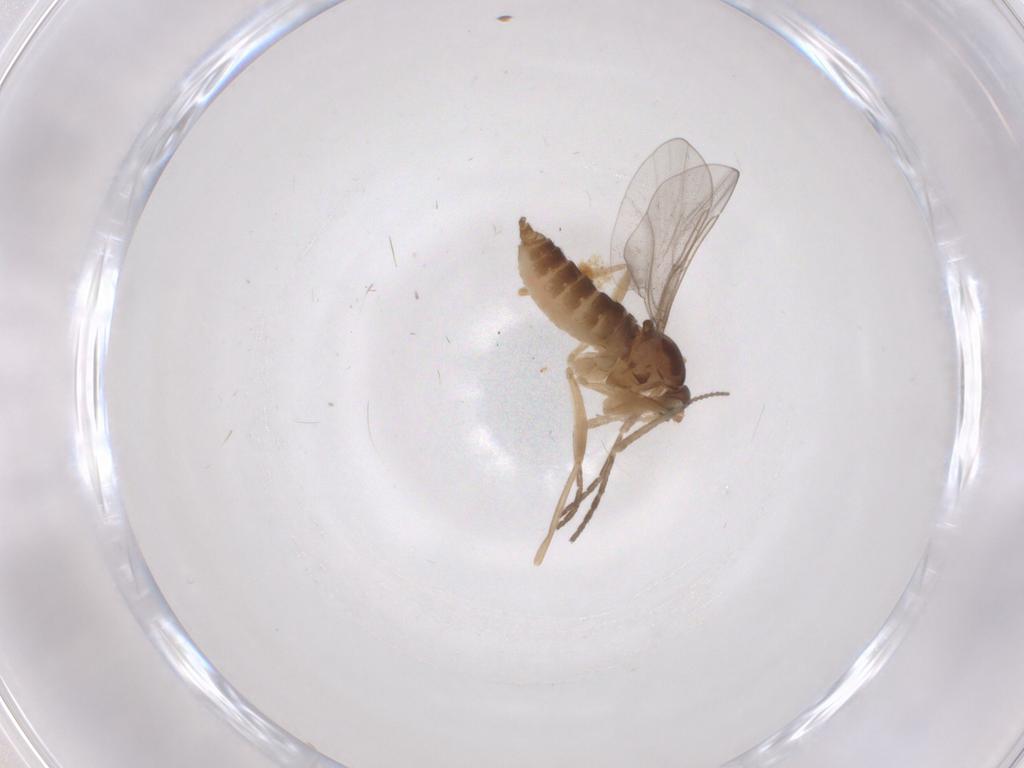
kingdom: Animalia
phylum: Arthropoda
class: Insecta
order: Diptera
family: Cecidomyiidae
